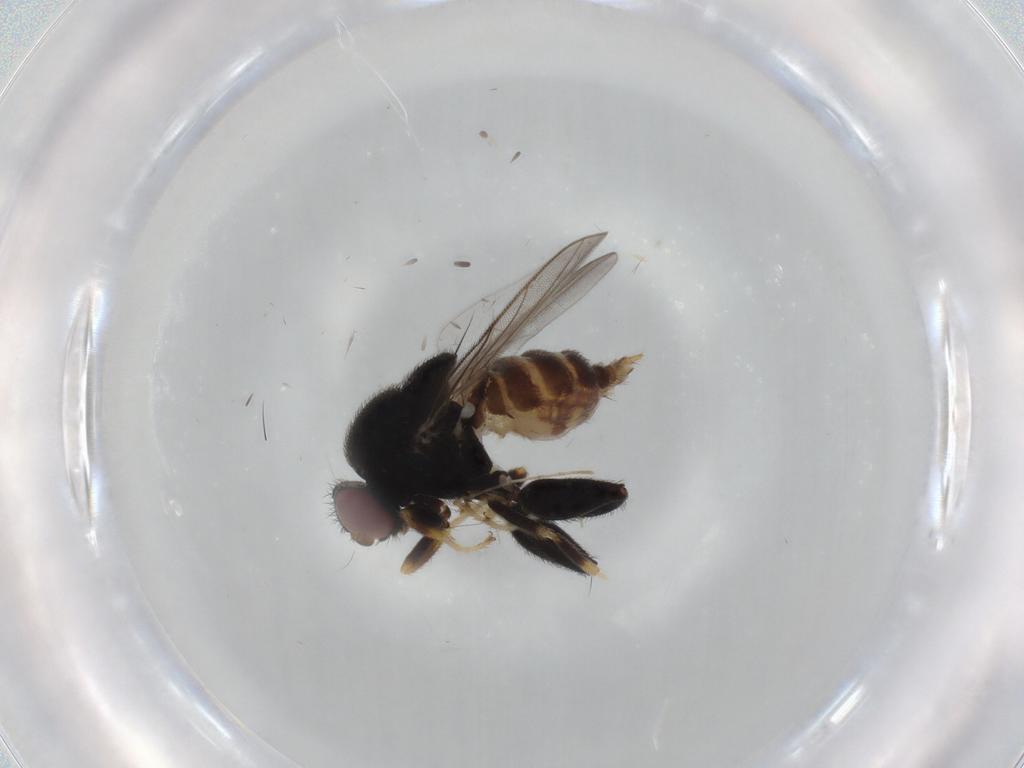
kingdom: Animalia
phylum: Arthropoda
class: Insecta
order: Diptera
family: Chloropidae
